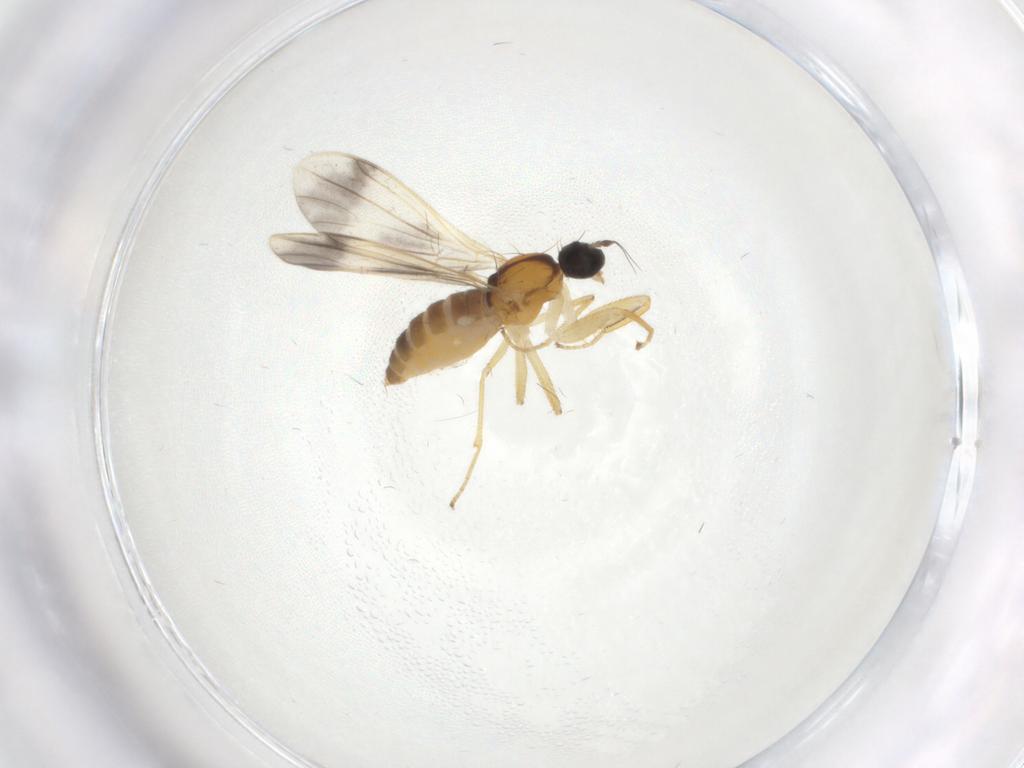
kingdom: Animalia
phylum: Arthropoda
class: Insecta
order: Diptera
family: Empididae
